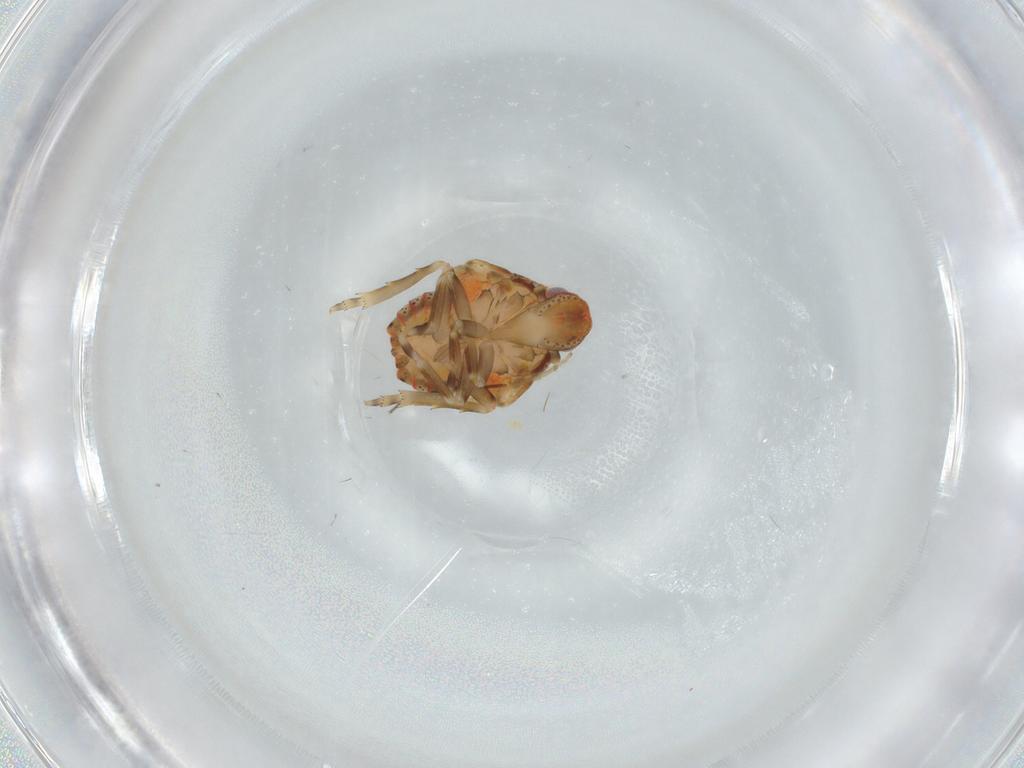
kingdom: Animalia
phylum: Arthropoda
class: Insecta
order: Hemiptera
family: Flatidae
